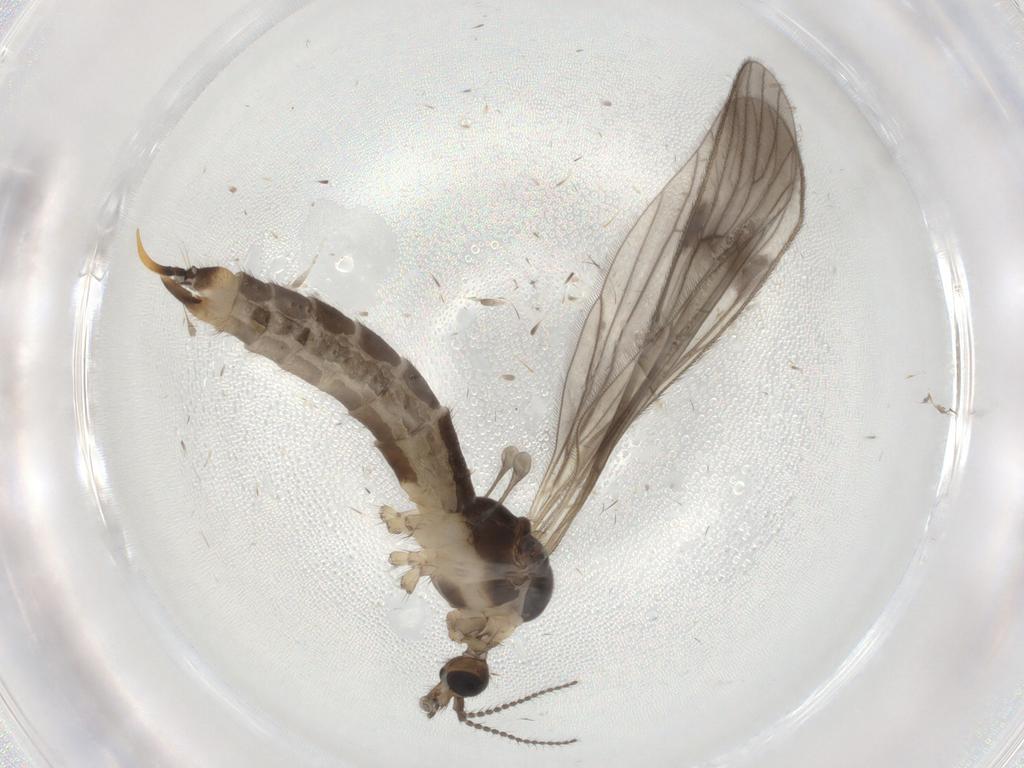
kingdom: Animalia
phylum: Arthropoda
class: Insecta
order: Diptera
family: Limoniidae
